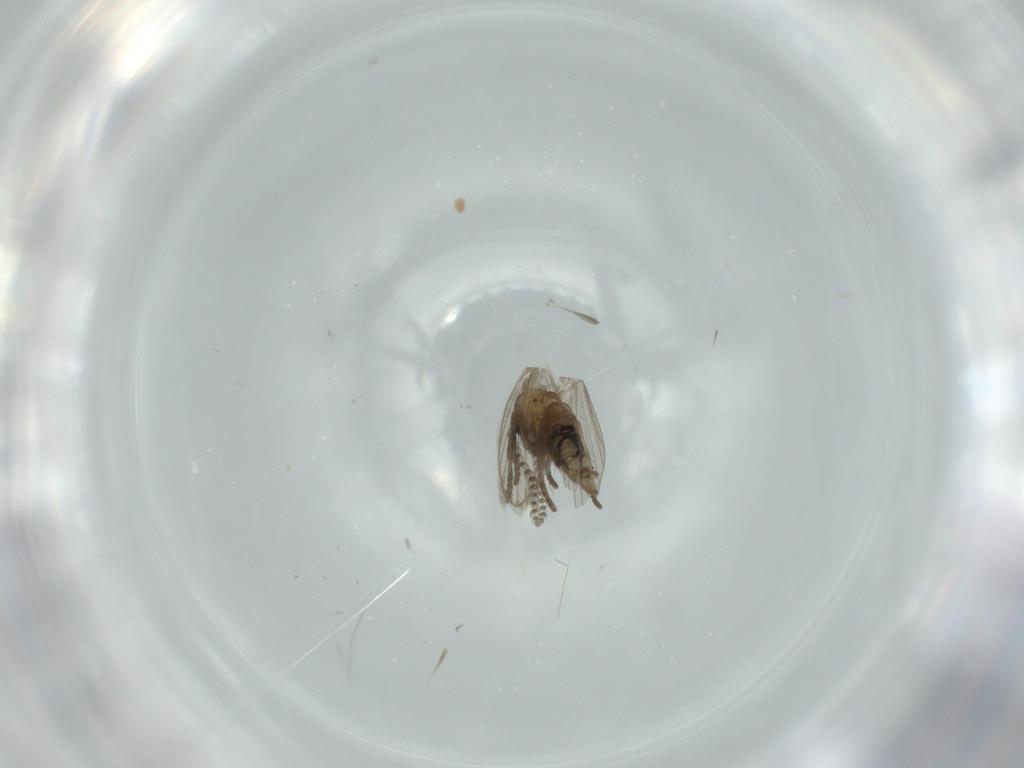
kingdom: Animalia
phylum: Arthropoda
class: Insecta
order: Diptera
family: Psychodidae
